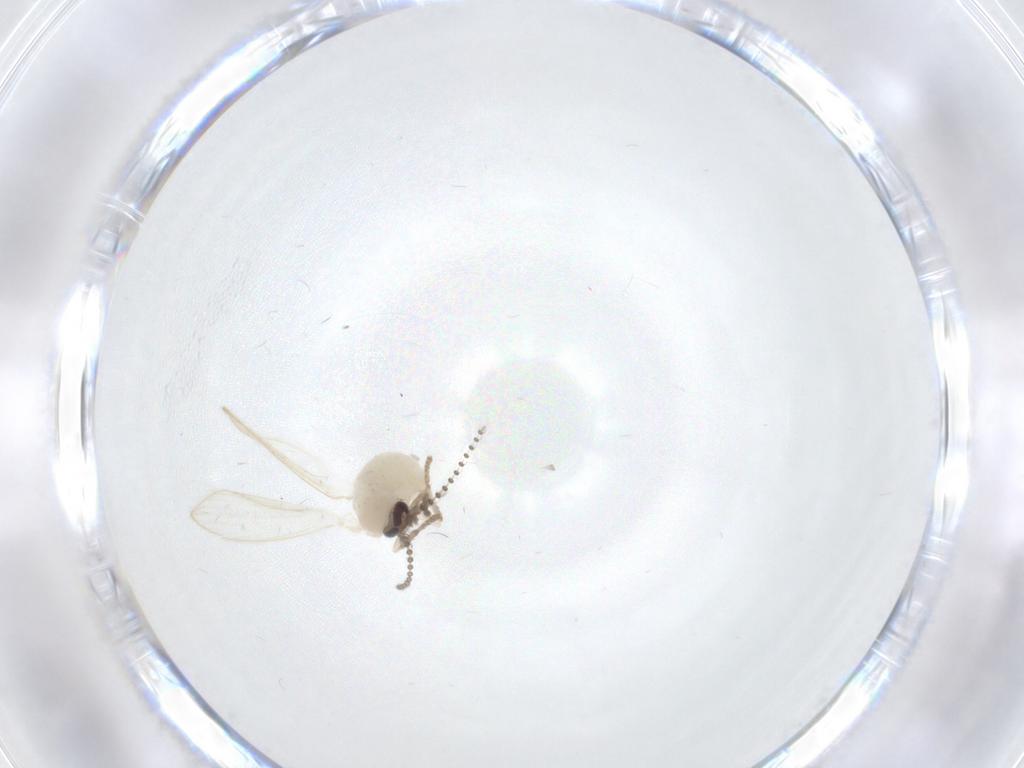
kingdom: Animalia
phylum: Arthropoda
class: Insecta
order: Diptera
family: Psychodidae
